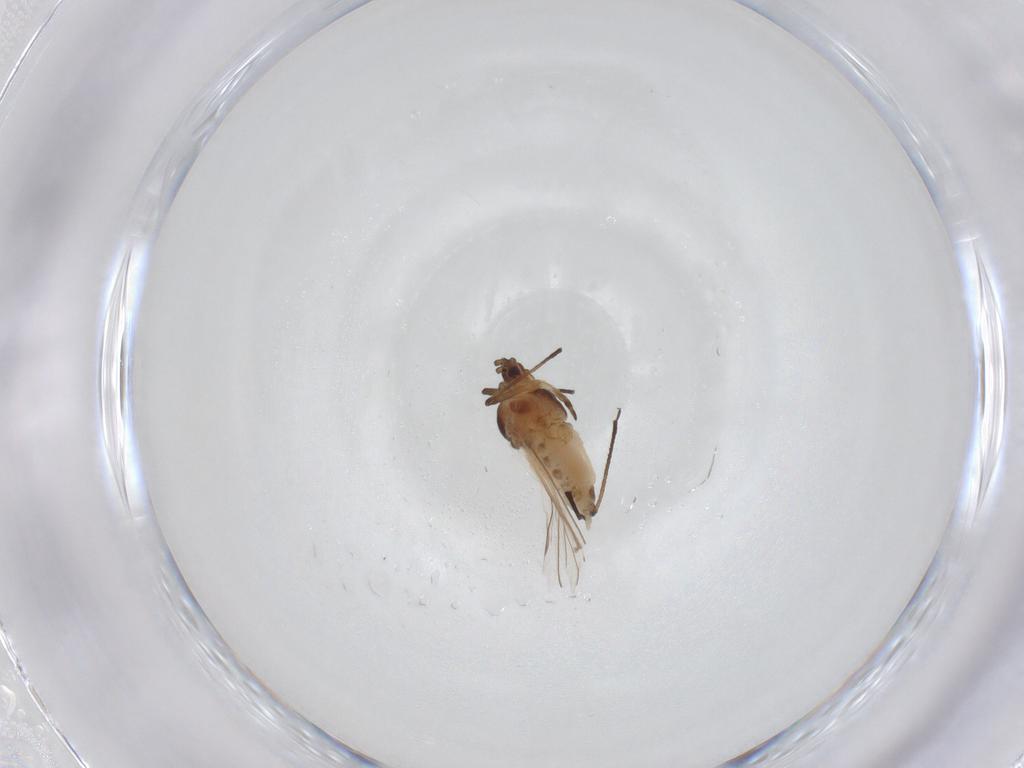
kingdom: Animalia
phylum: Arthropoda
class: Insecta
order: Hemiptera
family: Aphididae
